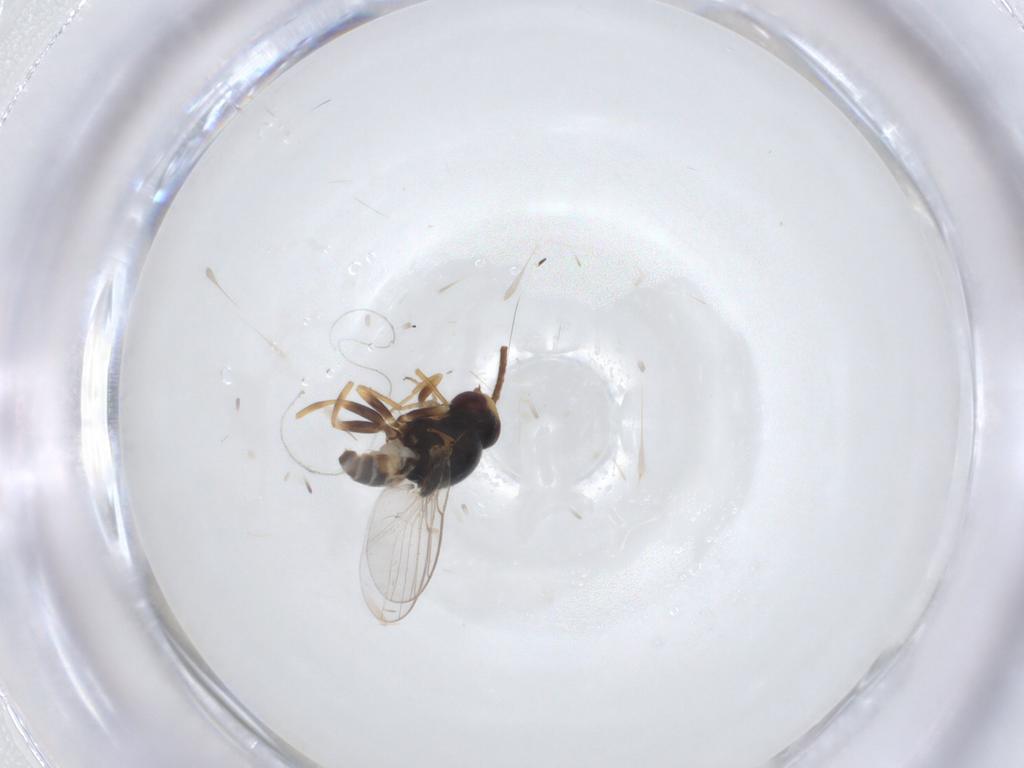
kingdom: Animalia
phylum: Arthropoda
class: Insecta
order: Diptera
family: Chloropidae
